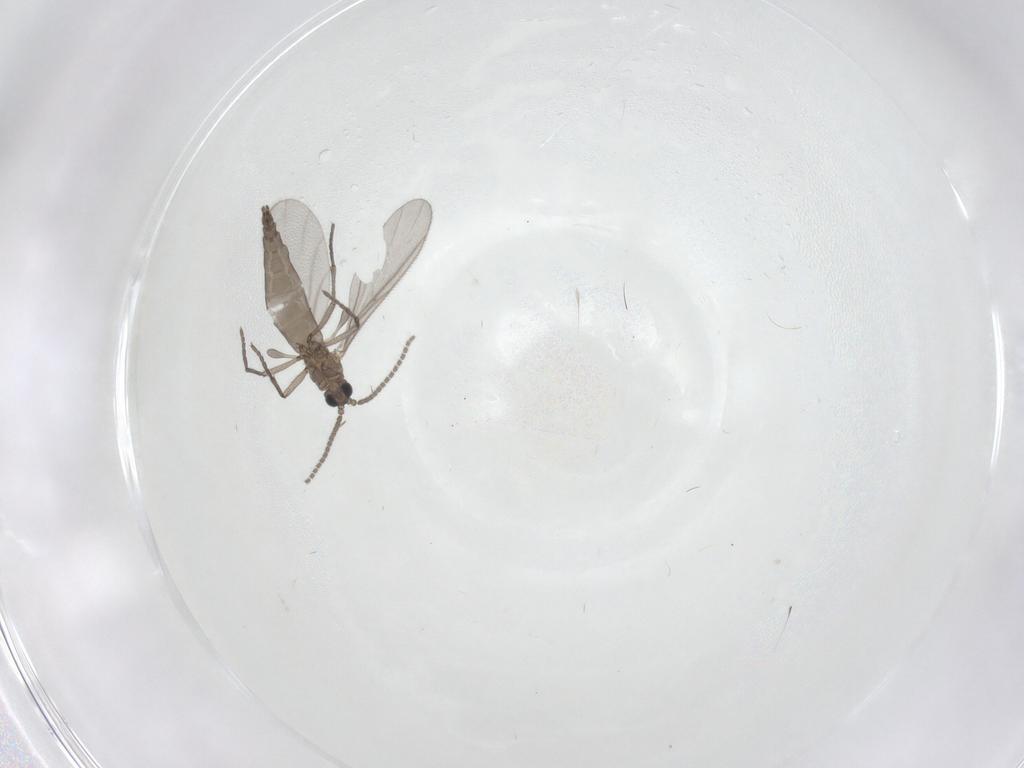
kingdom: Animalia
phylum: Arthropoda
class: Insecta
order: Diptera
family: Sciaridae
